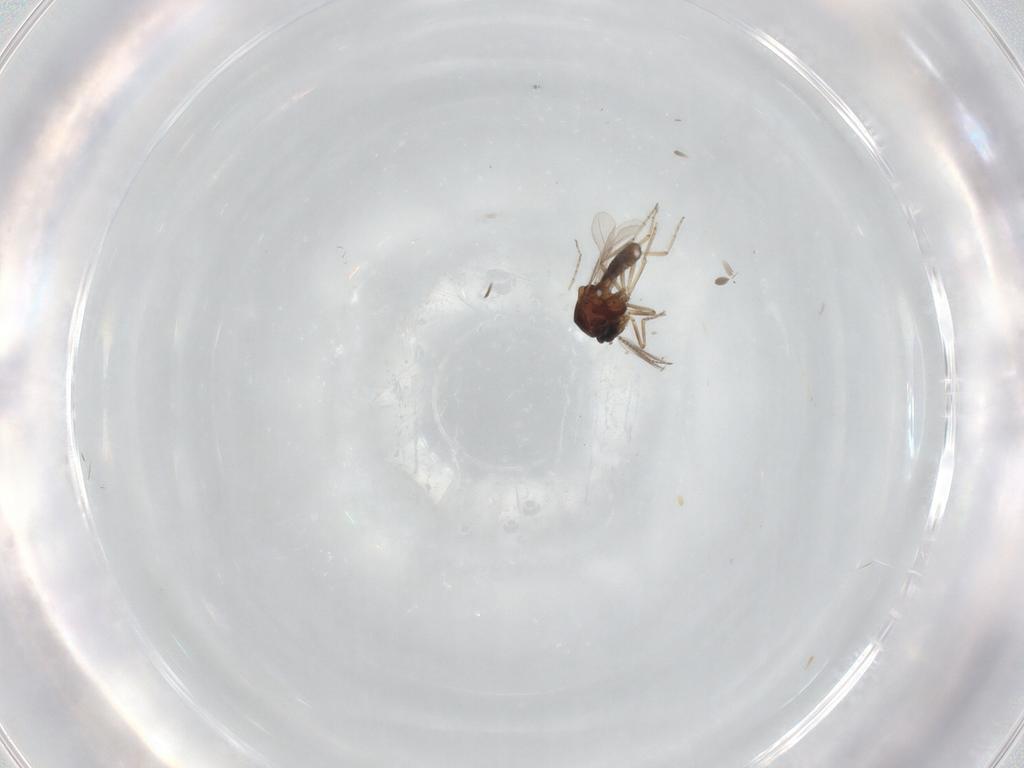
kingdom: Animalia
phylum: Arthropoda
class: Insecta
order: Diptera
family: Ceratopogonidae
